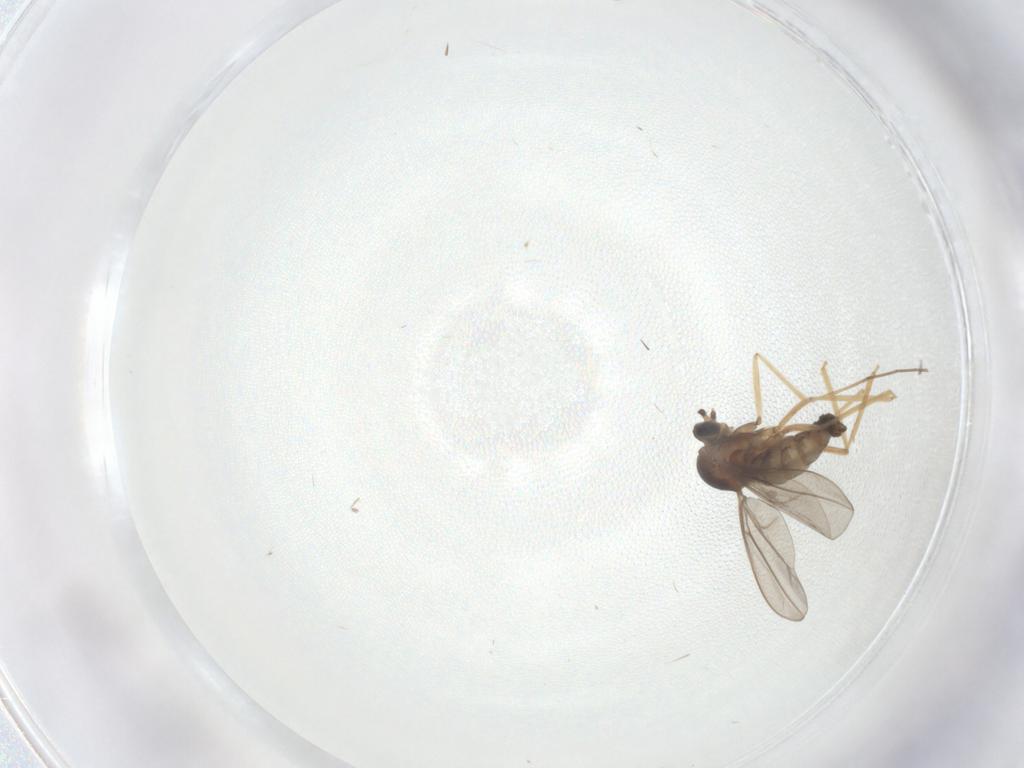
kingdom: Animalia
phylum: Arthropoda
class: Insecta
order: Diptera
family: Cecidomyiidae
